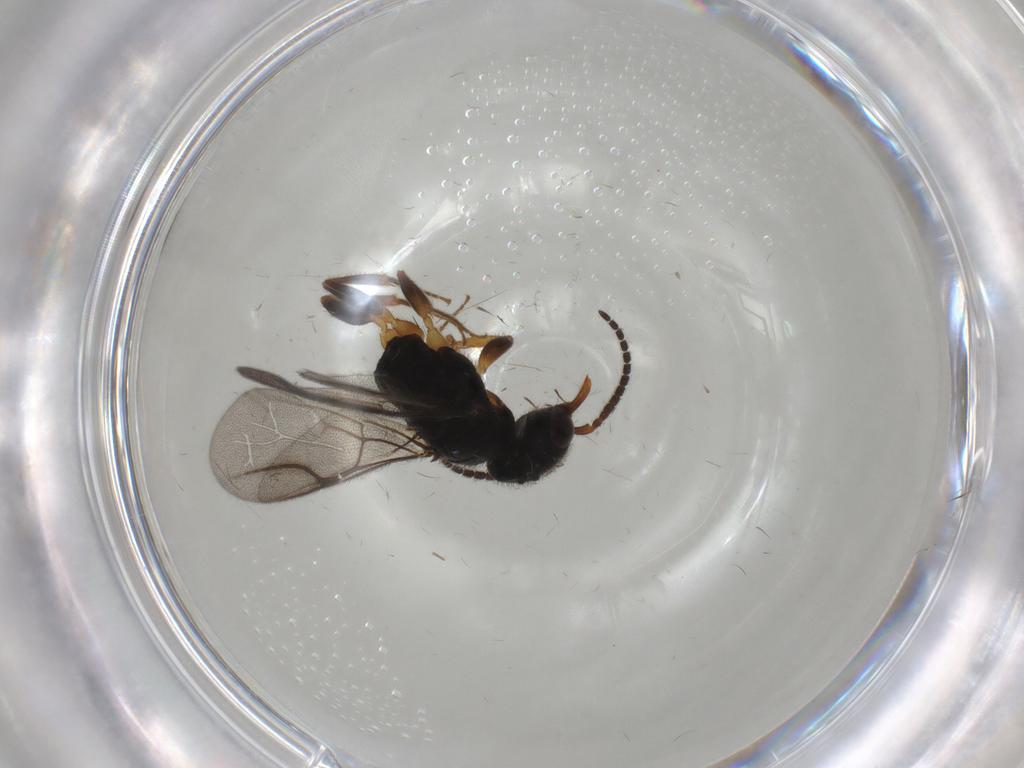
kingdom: Animalia
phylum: Arthropoda
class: Insecta
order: Hymenoptera
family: Bethylidae
